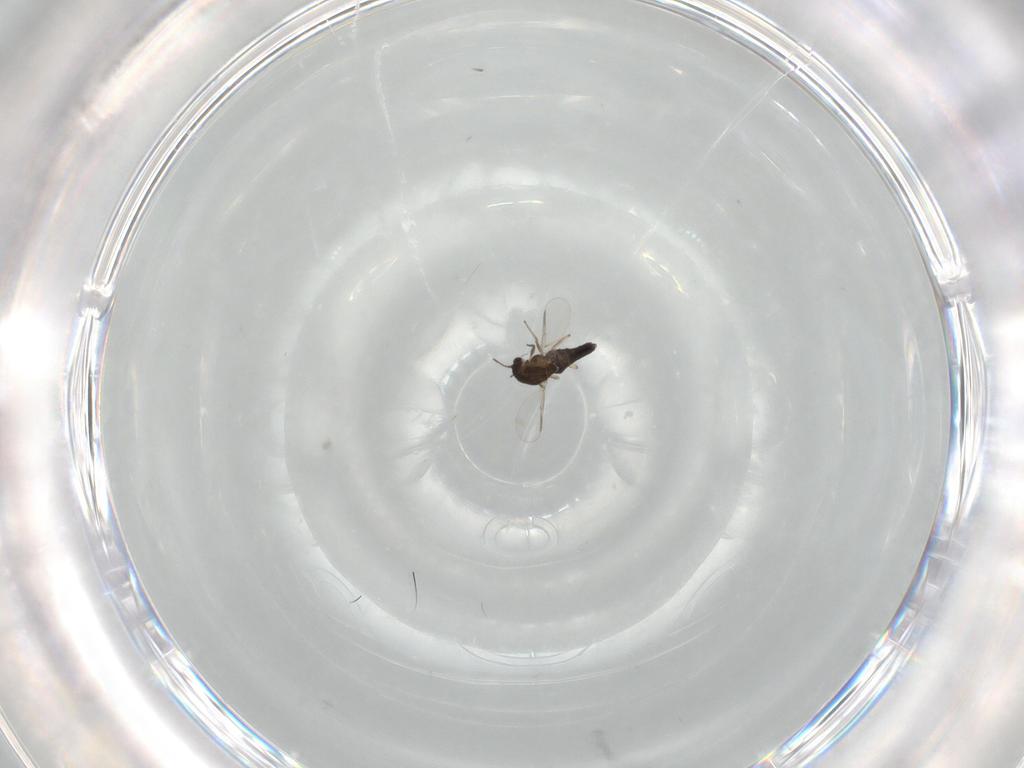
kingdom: Animalia
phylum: Arthropoda
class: Insecta
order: Diptera
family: Chironomidae
